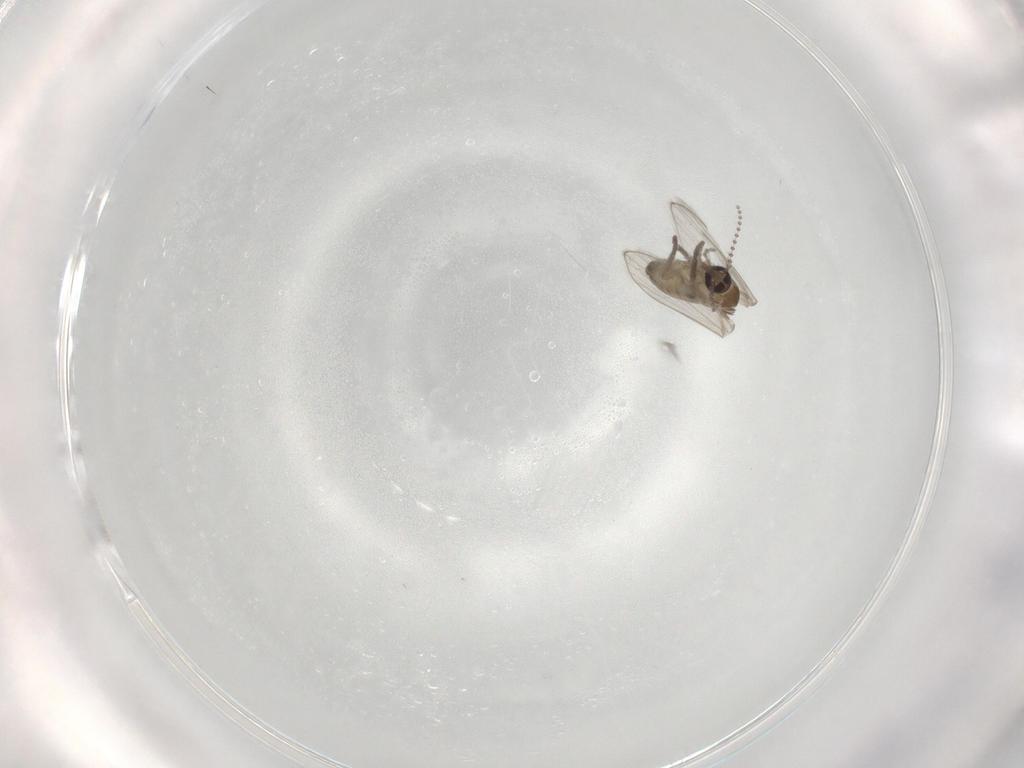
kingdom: Animalia
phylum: Arthropoda
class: Insecta
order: Diptera
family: Psychodidae
